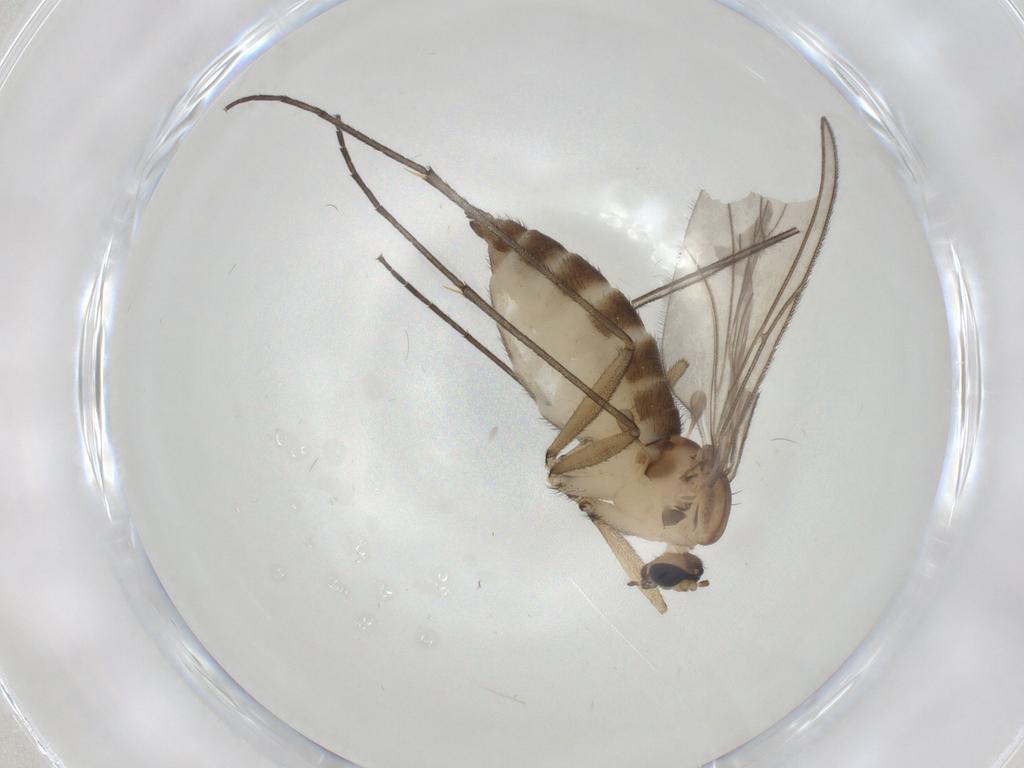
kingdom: Animalia
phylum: Arthropoda
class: Insecta
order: Diptera
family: Sciaridae
